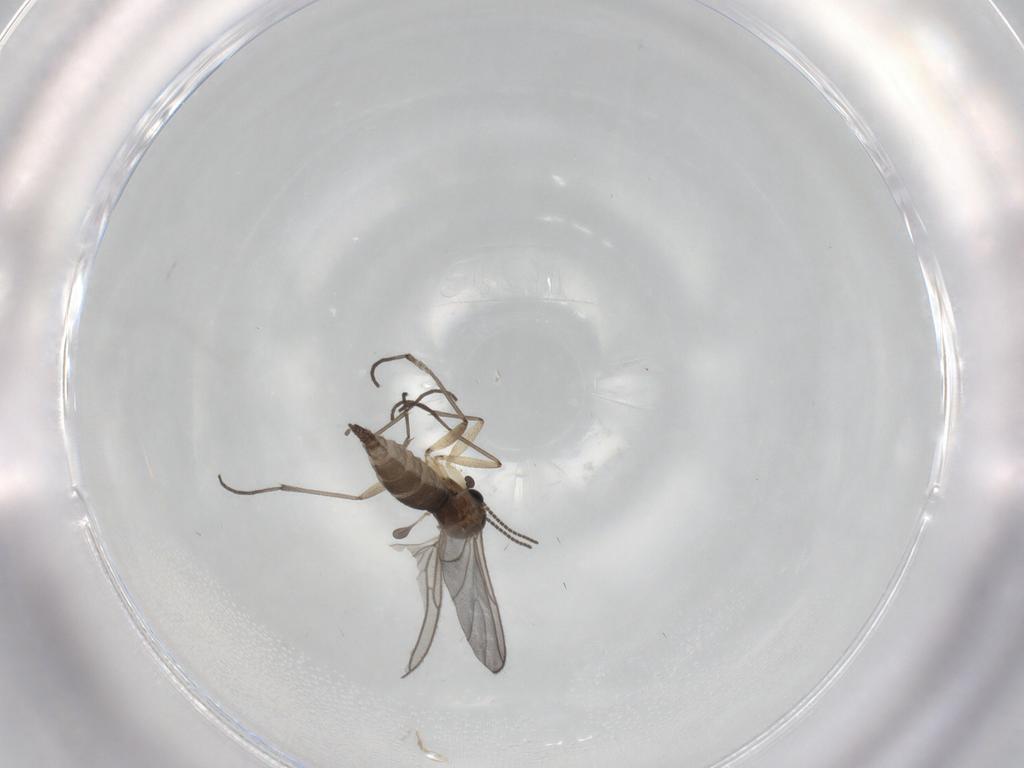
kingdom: Animalia
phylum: Arthropoda
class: Insecta
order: Diptera
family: Sciaridae
